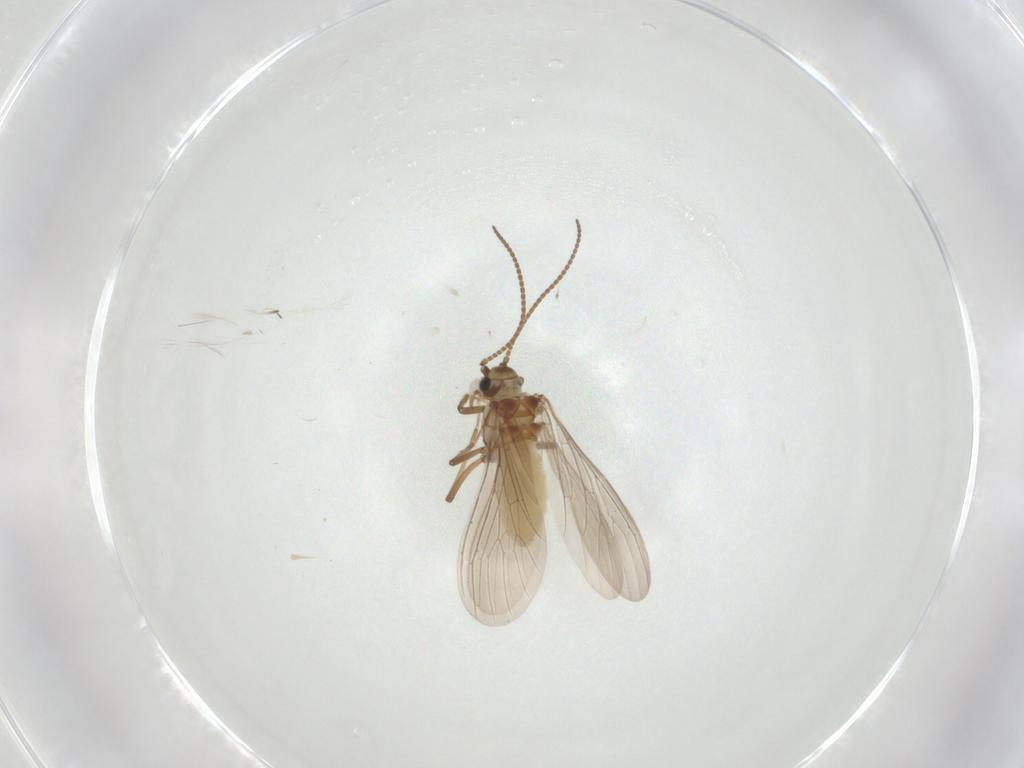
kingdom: Animalia
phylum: Arthropoda
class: Insecta
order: Neuroptera
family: Coniopterygidae
